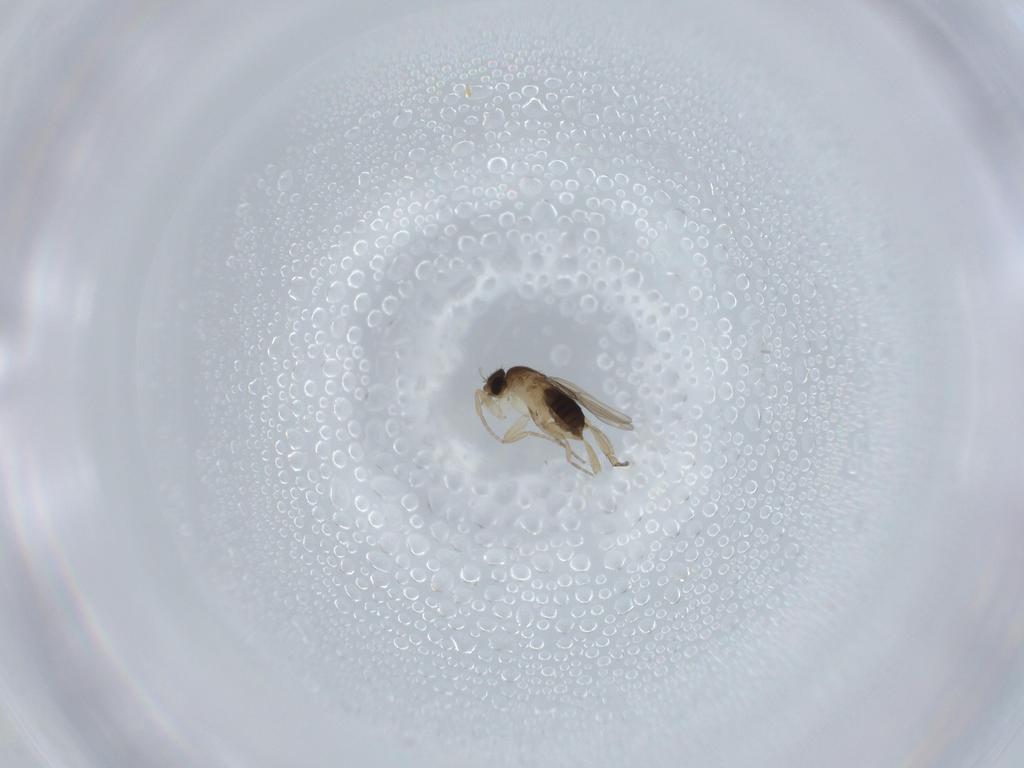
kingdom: Animalia
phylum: Arthropoda
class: Insecta
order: Diptera
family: Phoridae
